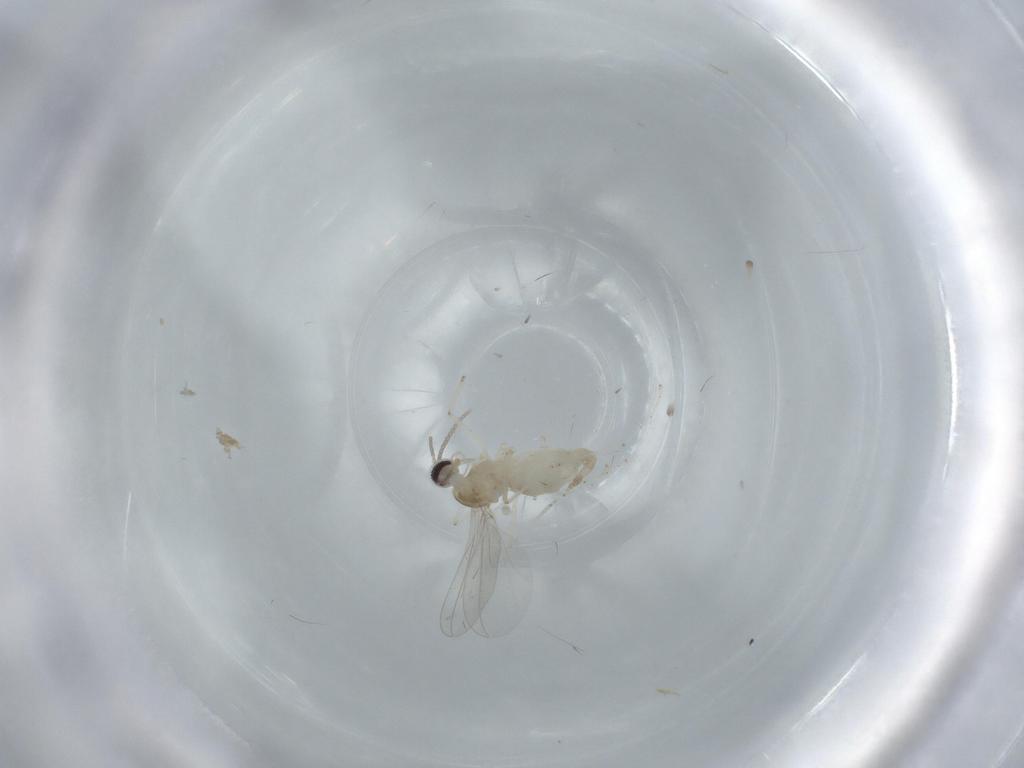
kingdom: Animalia
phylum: Arthropoda
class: Insecta
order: Diptera
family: Cecidomyiidae
